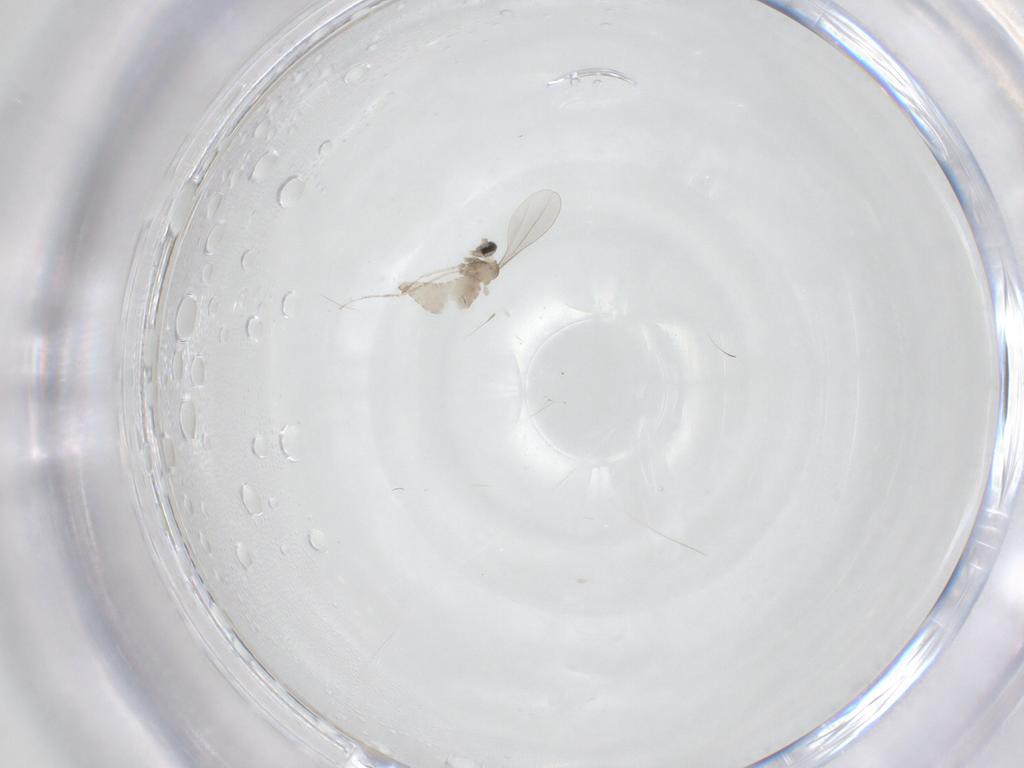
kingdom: Animalia
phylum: Arthropoda
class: Insecta
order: Diptera
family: Cecidomyiidae
